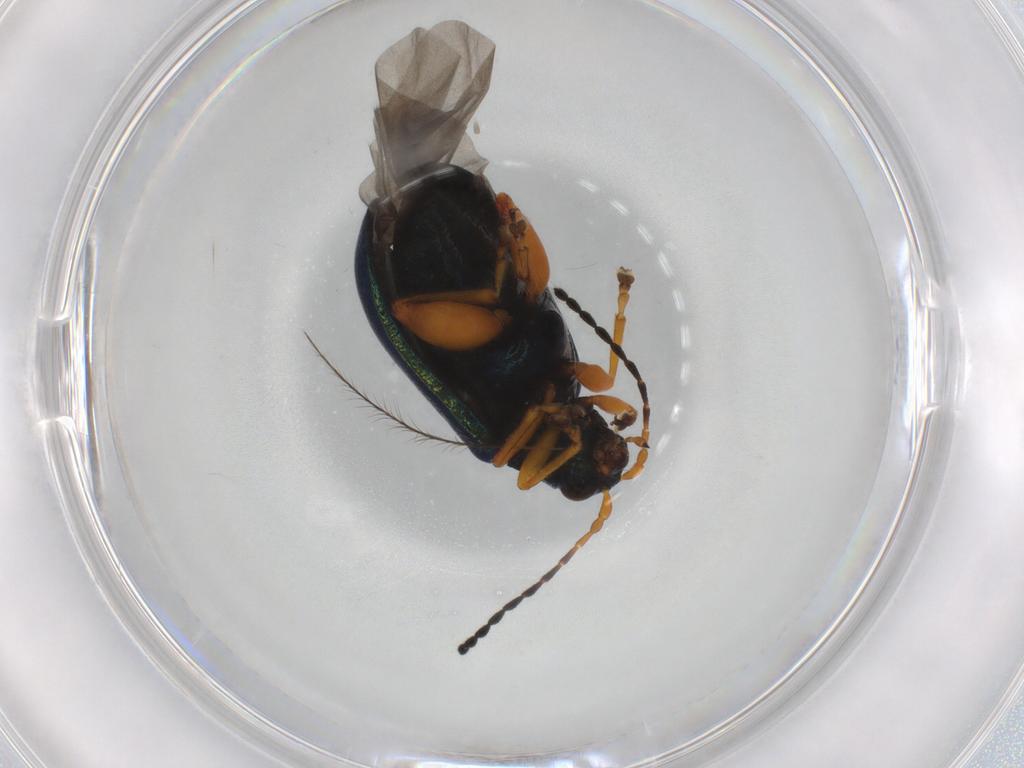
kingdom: Animalia
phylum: Arthropoda
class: Insecta
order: Coleoptera
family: Chrysomelidae
